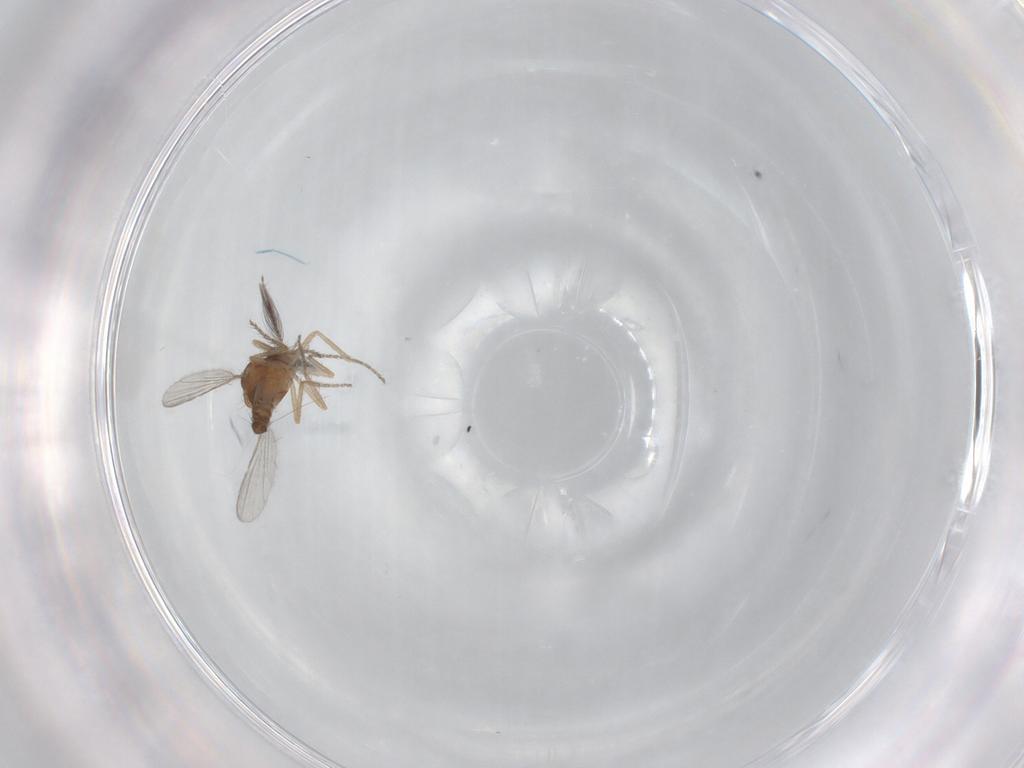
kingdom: Animalia
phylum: Arthropoda
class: Insecta
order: Diptera
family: Ceratopogonidae
